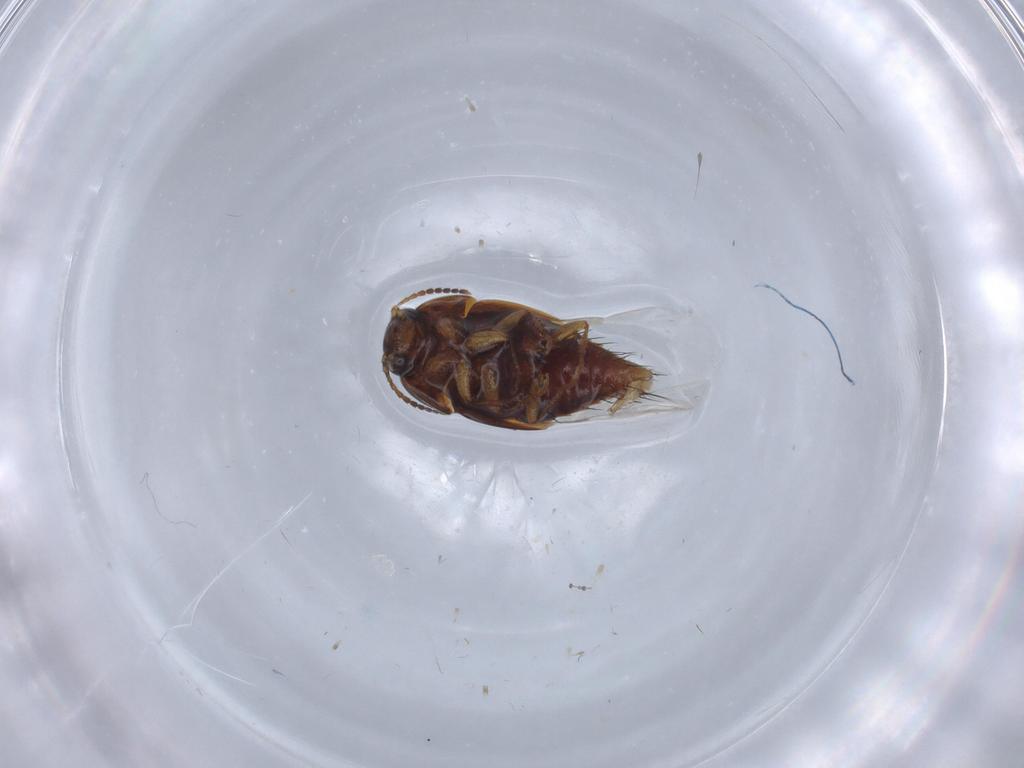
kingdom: Animalia
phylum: Arthropoda
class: Insecta
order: Coleoptera
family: Staphylinidae
